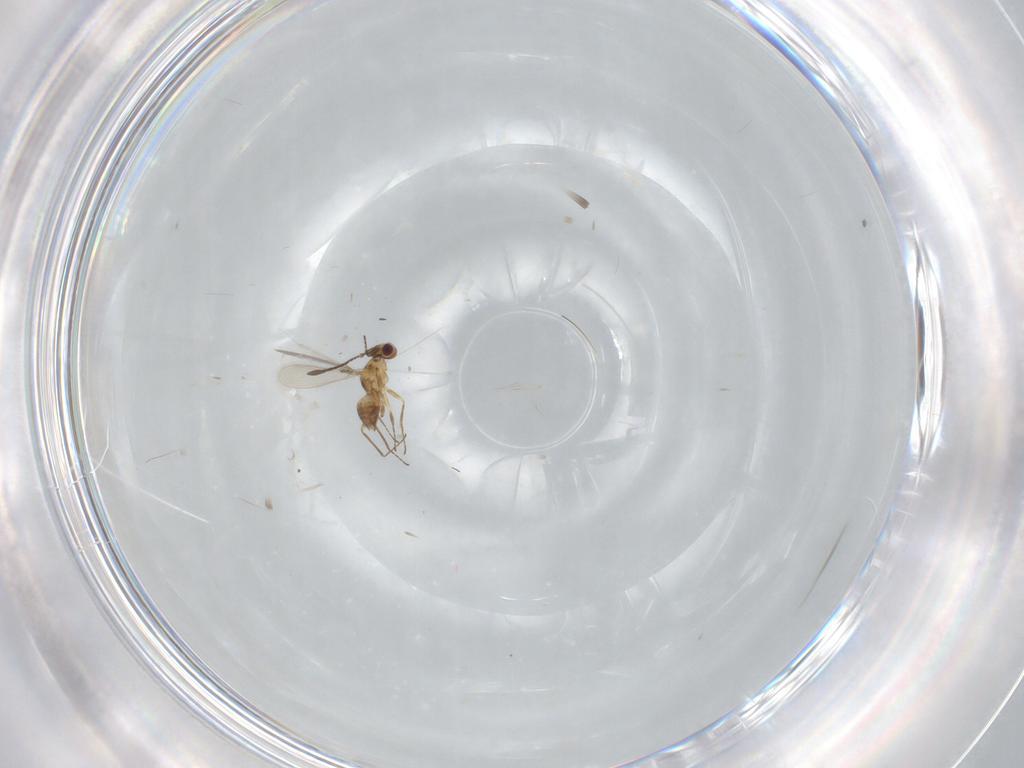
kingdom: Animalia
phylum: Arthropoda
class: Insecta
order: Hymenoptera
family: Mymaridae
